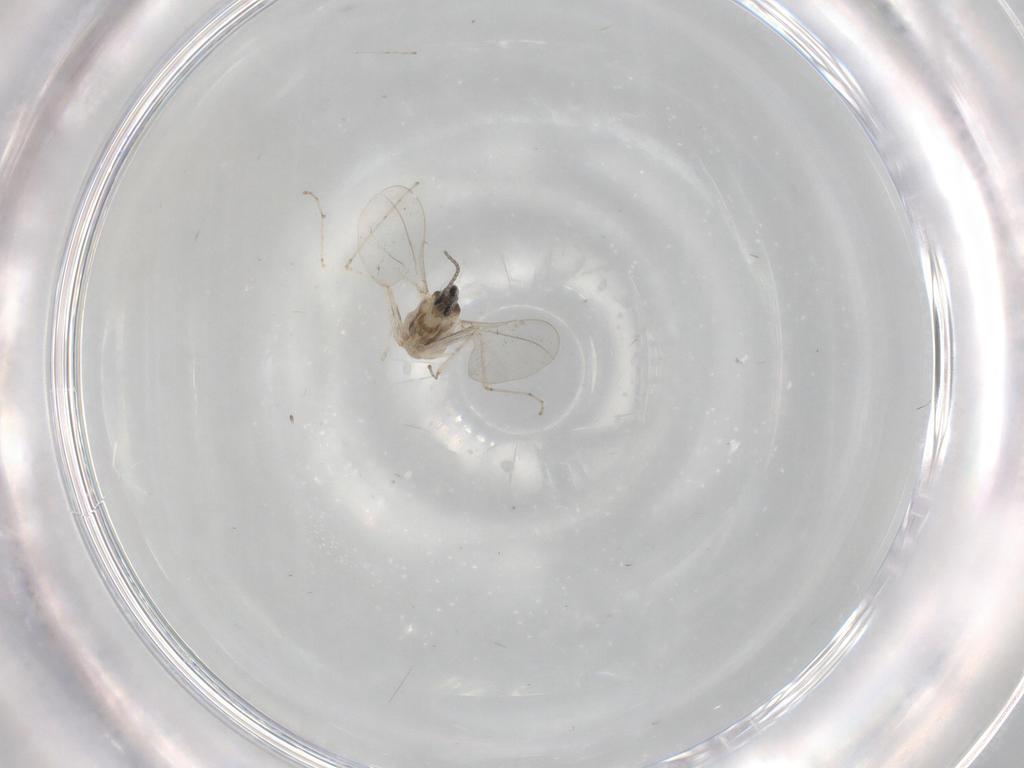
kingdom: Animalia
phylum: Arthropoda
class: Insecta
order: Diptera
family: Cecidomyiidae
